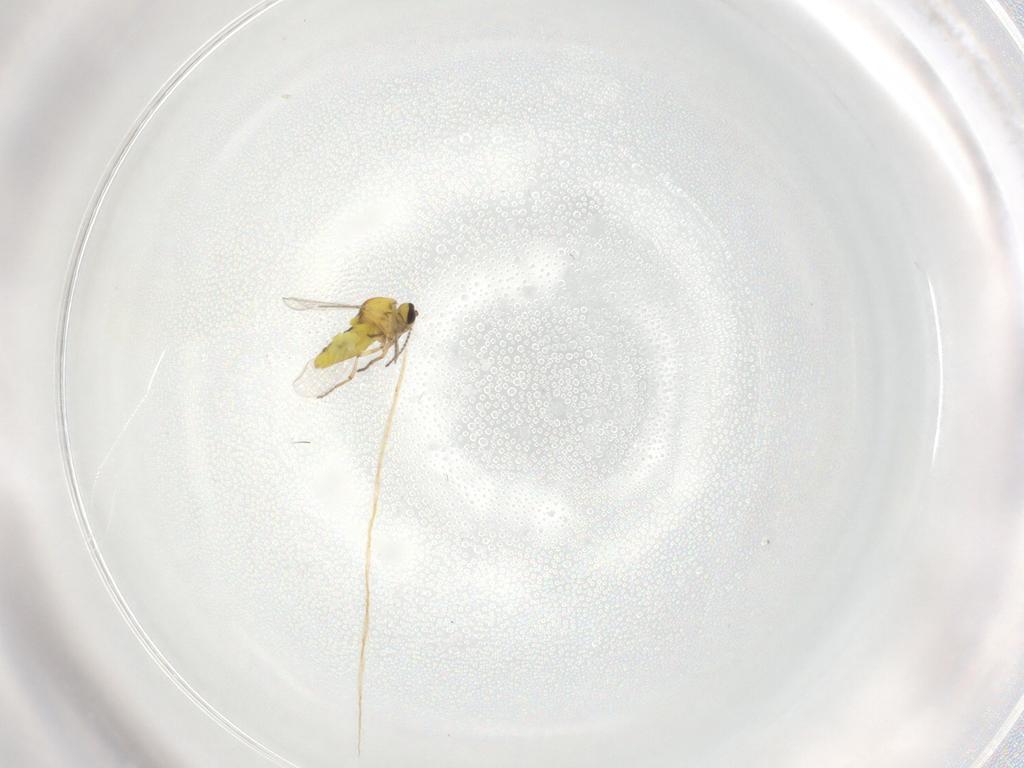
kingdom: Animalia
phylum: Arthropoda
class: Insecta
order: Diptera
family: Ceratopogonidae
